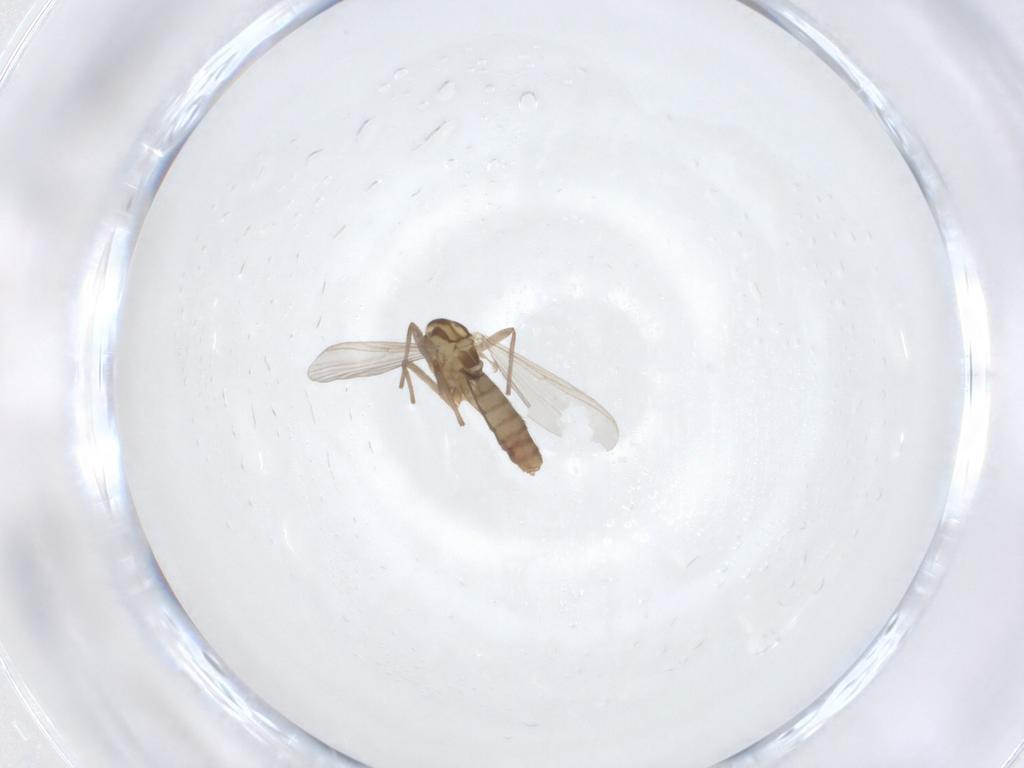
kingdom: Animalia
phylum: Arthropoda
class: Insecta
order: Diptera
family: Chironomidae
